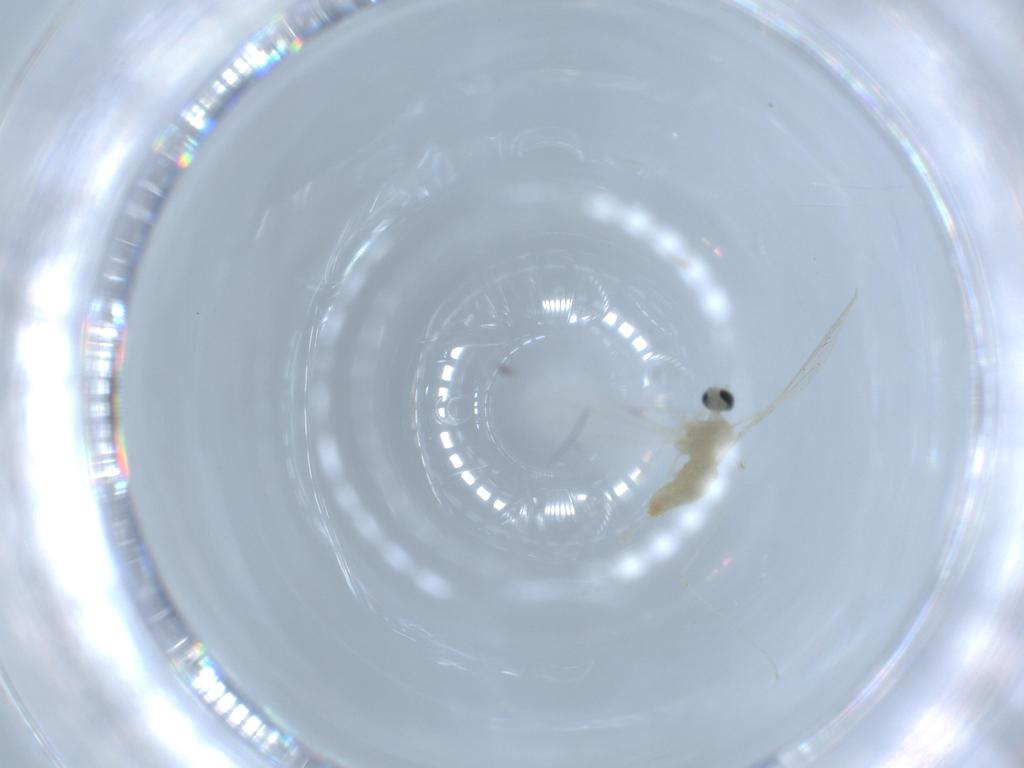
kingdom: Animalia
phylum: Arthropoda
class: Insecta
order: Diptera
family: Cecidomyiidae
